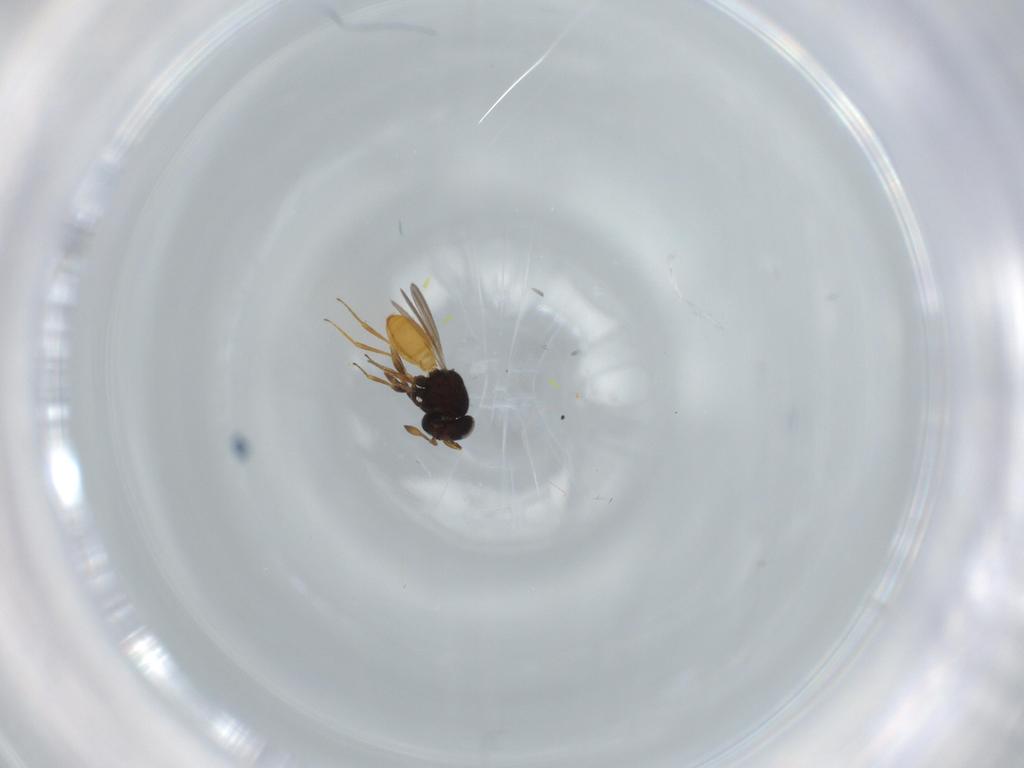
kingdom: Animalia
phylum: Arthropoda
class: Insecta
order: Hymenoptera
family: Scelionidae
